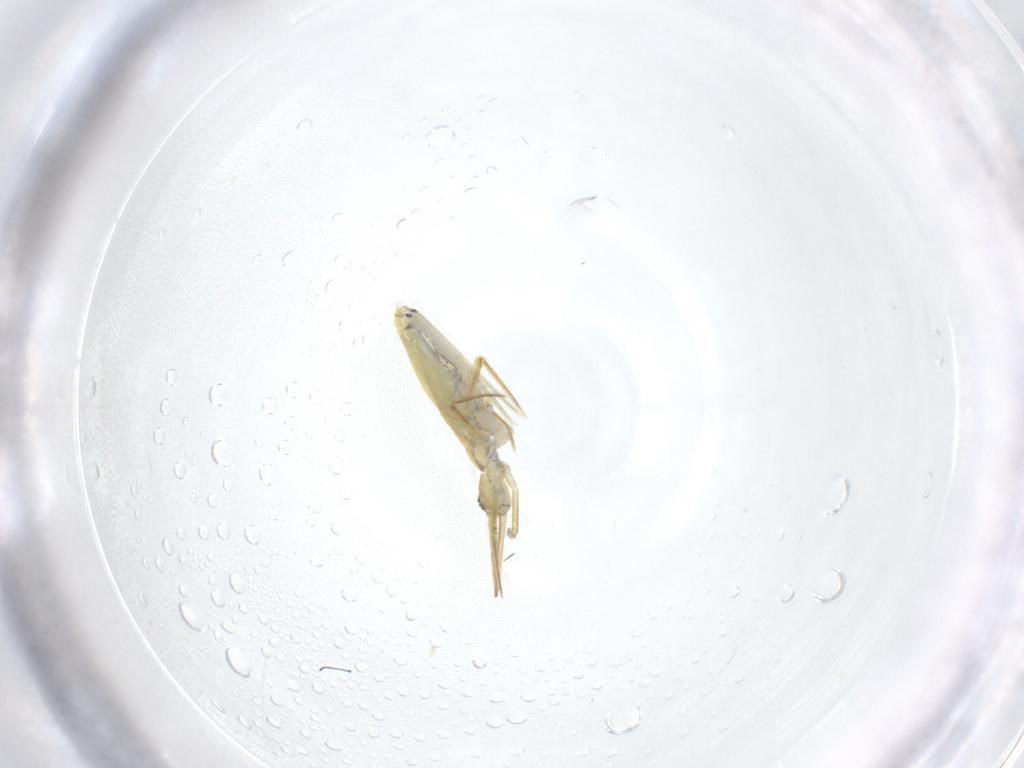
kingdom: Animalia
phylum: Arthropoda
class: Collembola
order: Entomobryomorpha
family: Entomobryidae
